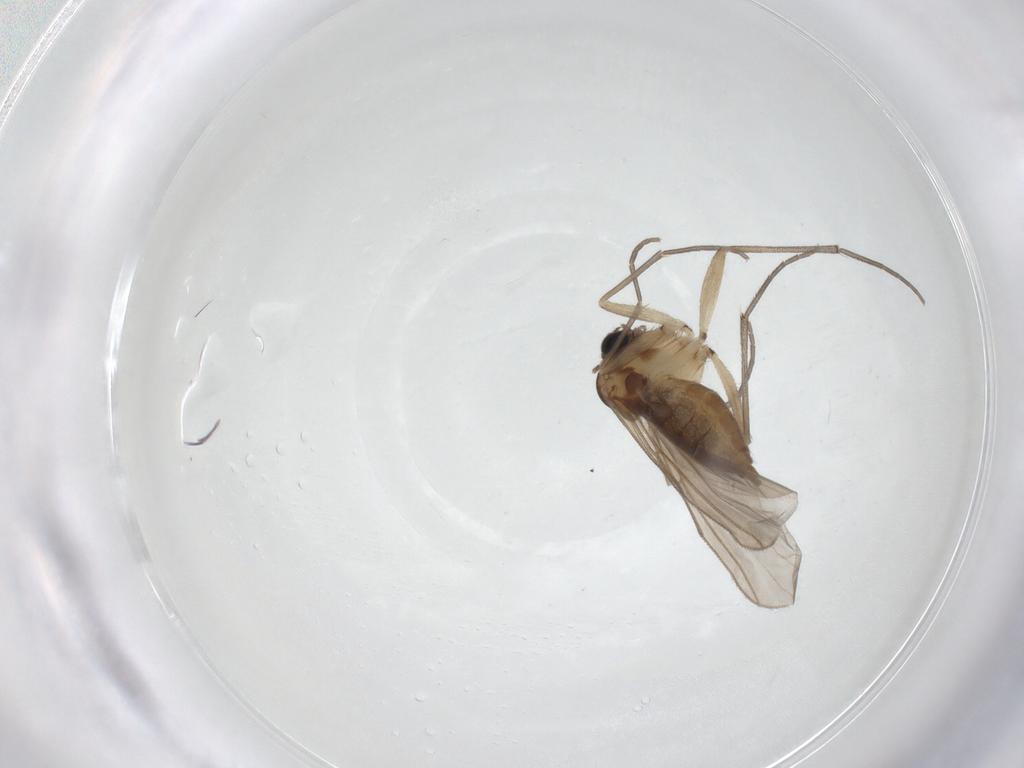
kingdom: Animalia
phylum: Arthropoda
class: Insecta
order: Diptera
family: Sciaridae
